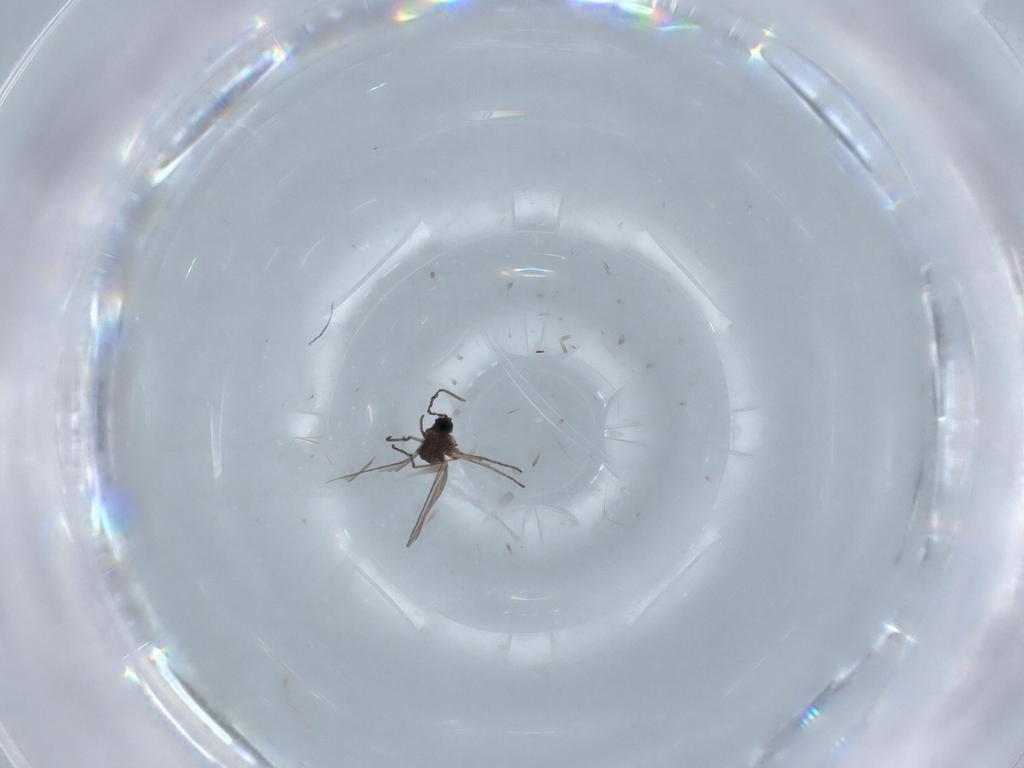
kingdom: Animalia
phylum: Arthropoda
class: Insecta
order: Diptera
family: Sciaridae
